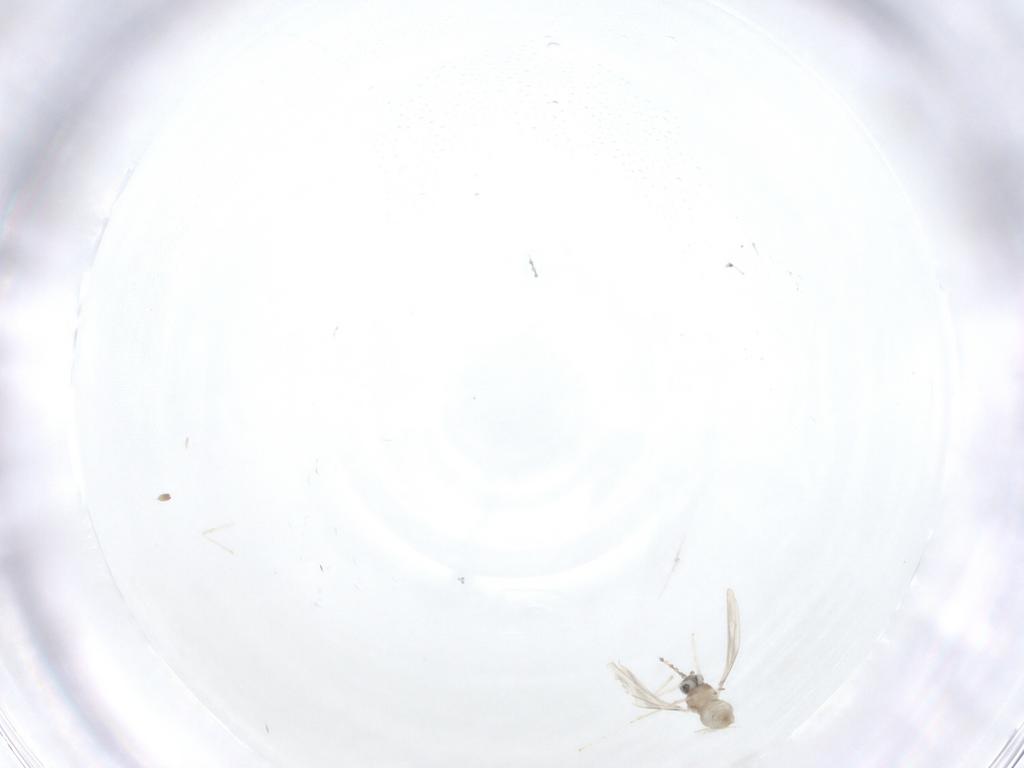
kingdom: Animalia
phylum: Arthropoda
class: Insecta
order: Diptera
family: Cecidomyiidae
